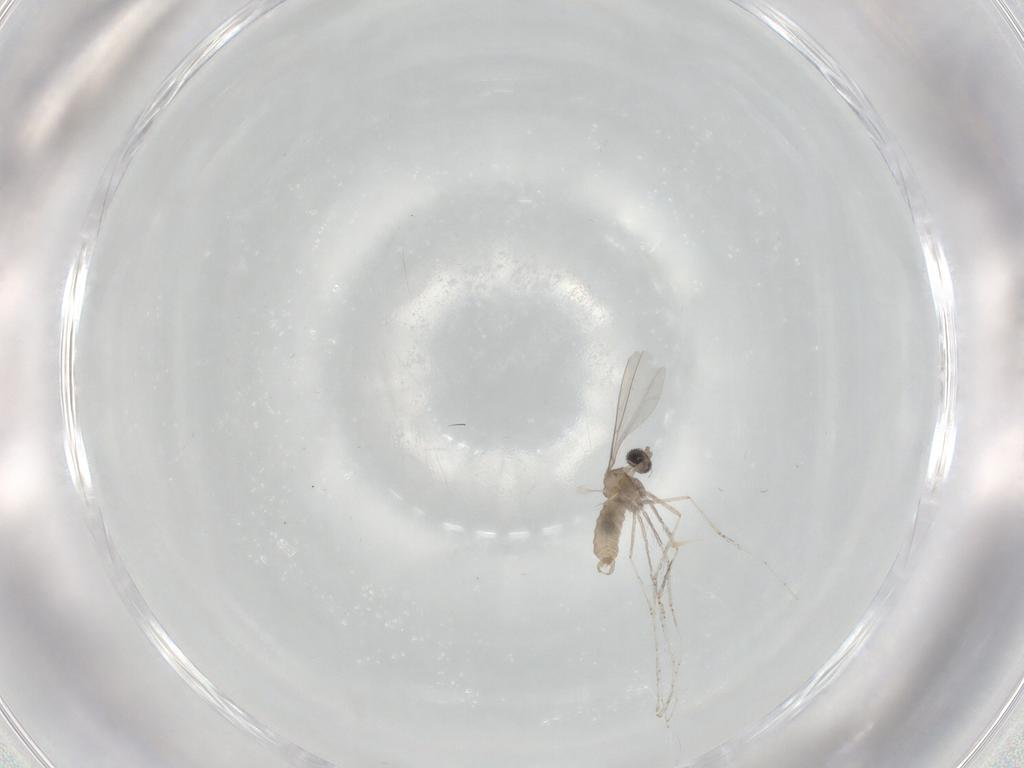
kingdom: Animalia
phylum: Arthropoda
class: Insecta
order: Diptera
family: Cecidomyiidae
